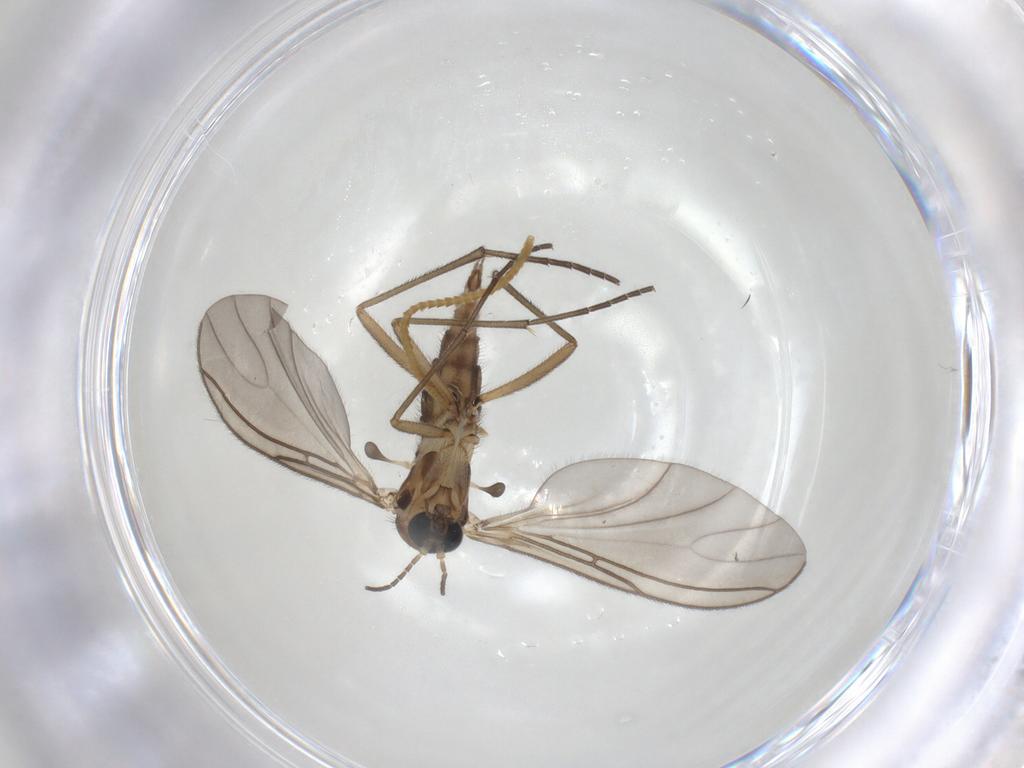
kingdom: Animalia
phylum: Arthropoda
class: Insecta
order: Diptera
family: Sciaridae
